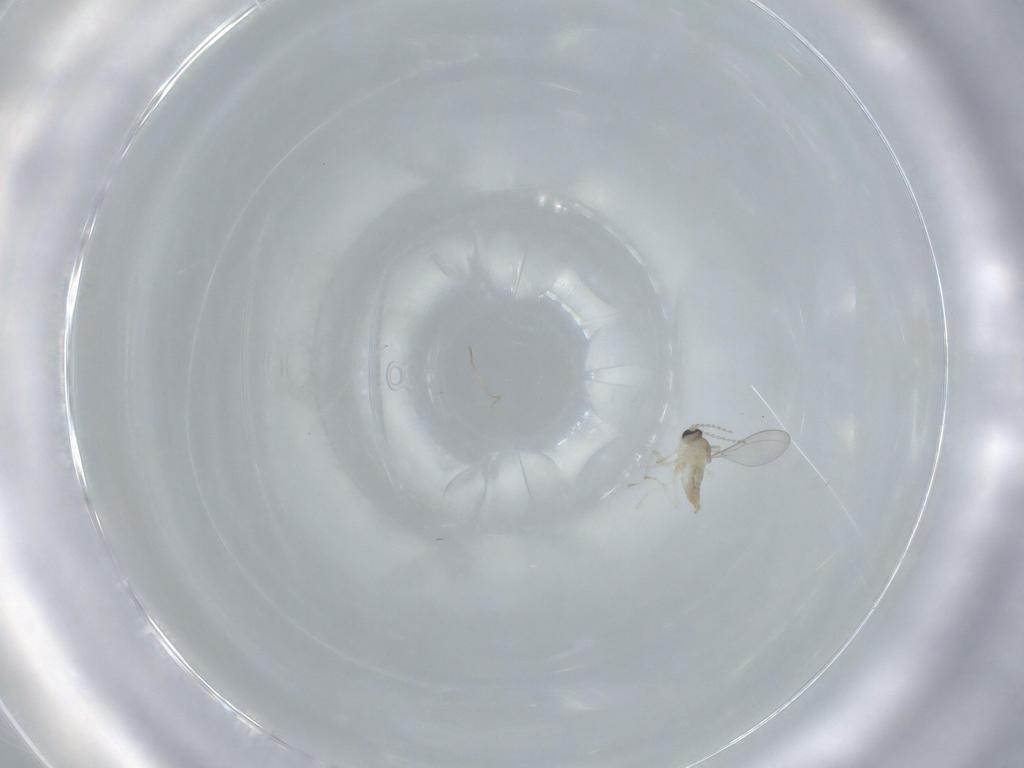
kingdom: Animalia
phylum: Arthropoda
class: Insecta
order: Diptera
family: Cecidomyiidae
